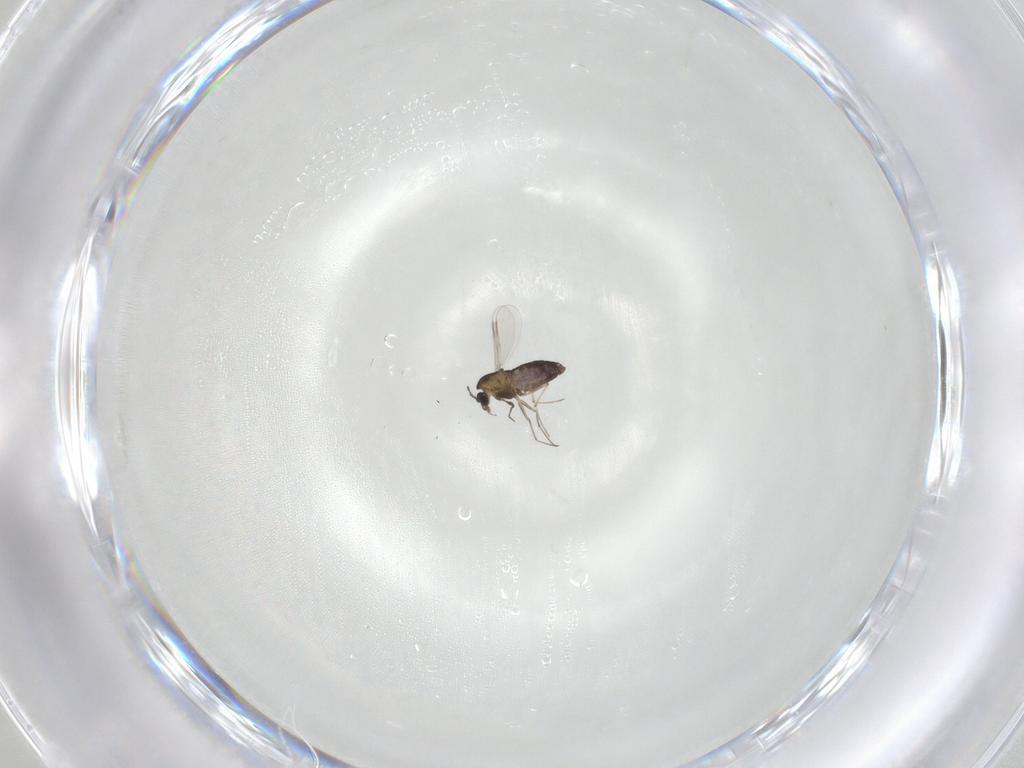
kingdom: Animalia
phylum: Arthropoda
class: Insecta
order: Diptera
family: Chironomidae
